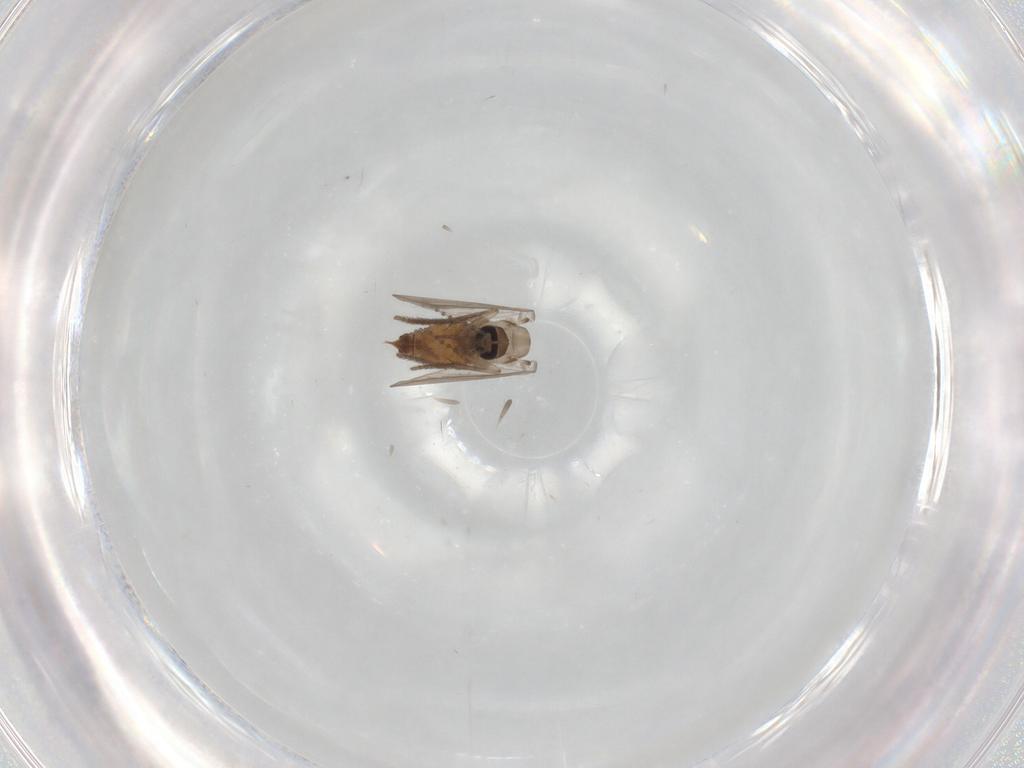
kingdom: Animalia
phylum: Arthropoda
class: Insecta
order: Diptera
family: Psychodidae
